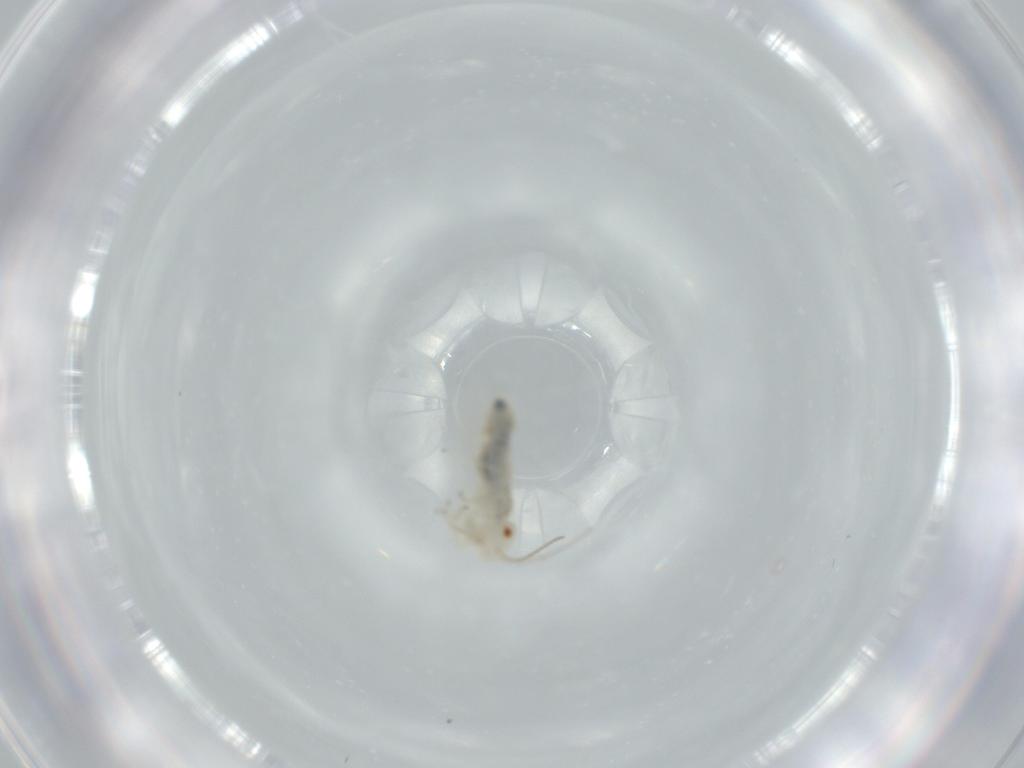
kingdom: Animalia
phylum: Arthropoda
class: Insecta
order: Psocodea
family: Caeciliusidae
